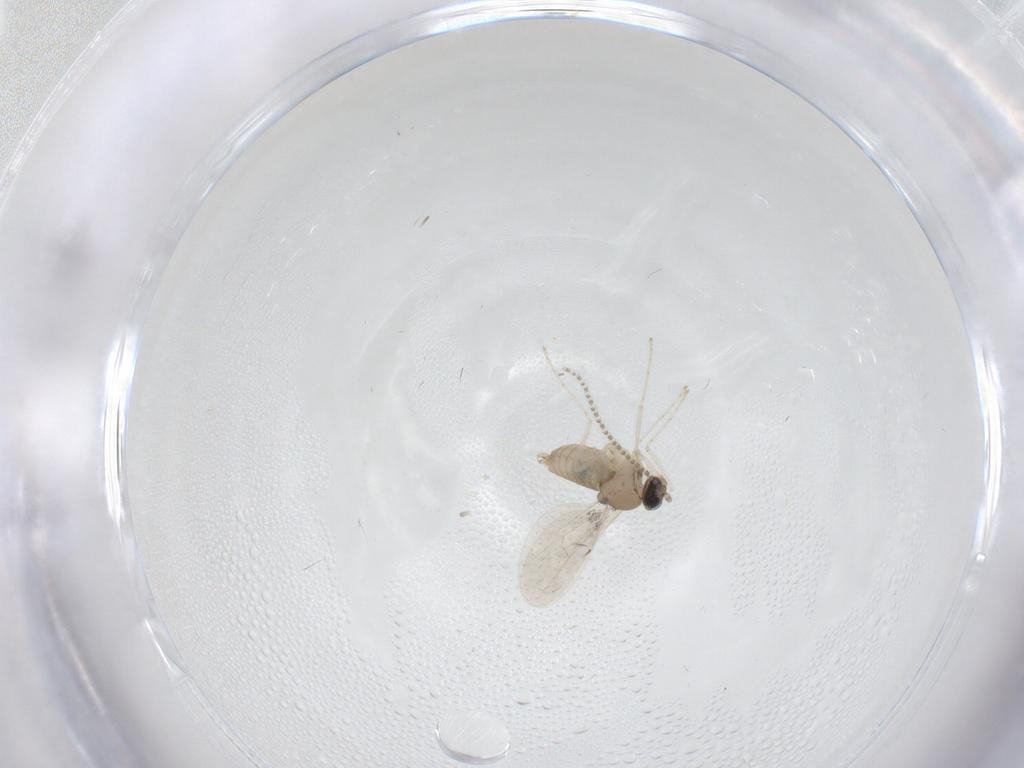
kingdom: Animalia
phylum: Arthropoda
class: Insecta
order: Diptera
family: Cecidomyiidae
